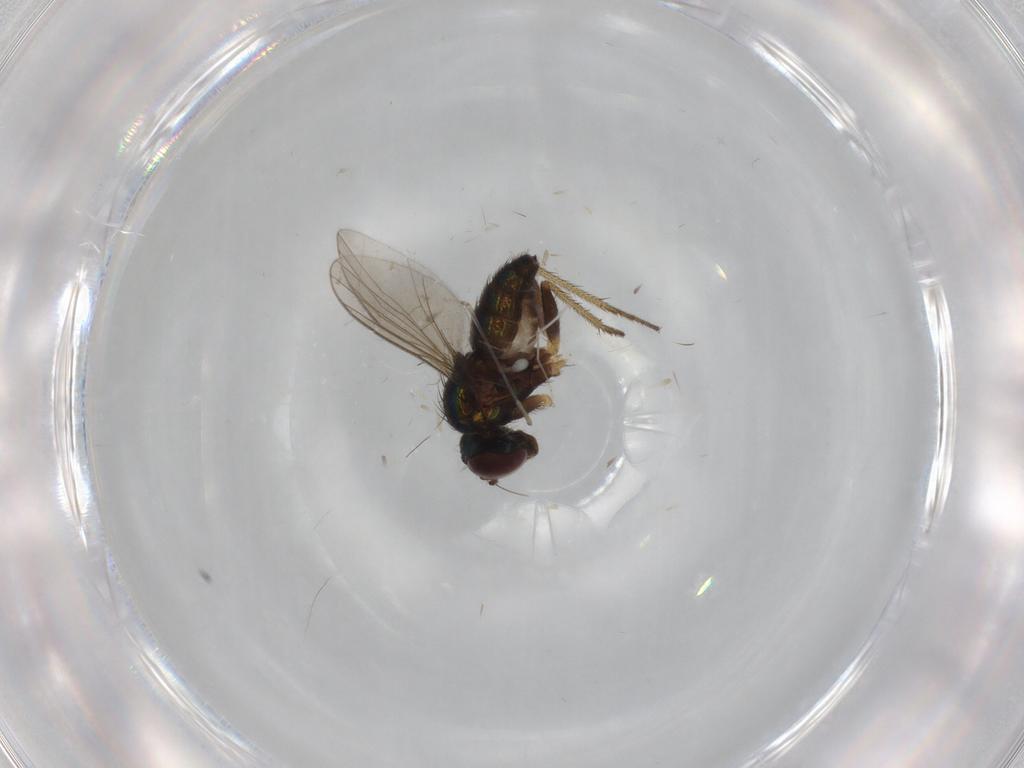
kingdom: Animalia
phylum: Arthropoda
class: Insecta
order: Diptera
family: Cecidomyiidae
